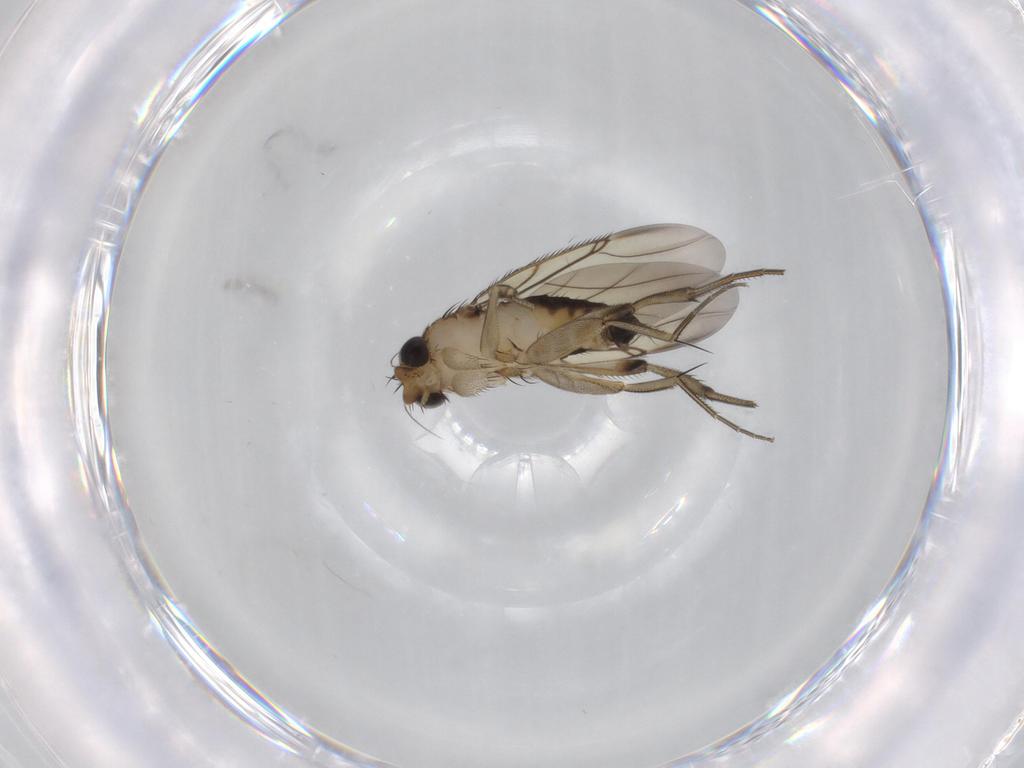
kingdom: Animalia
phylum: Arthropoda
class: Insecta
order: Diptera
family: Phoridae
